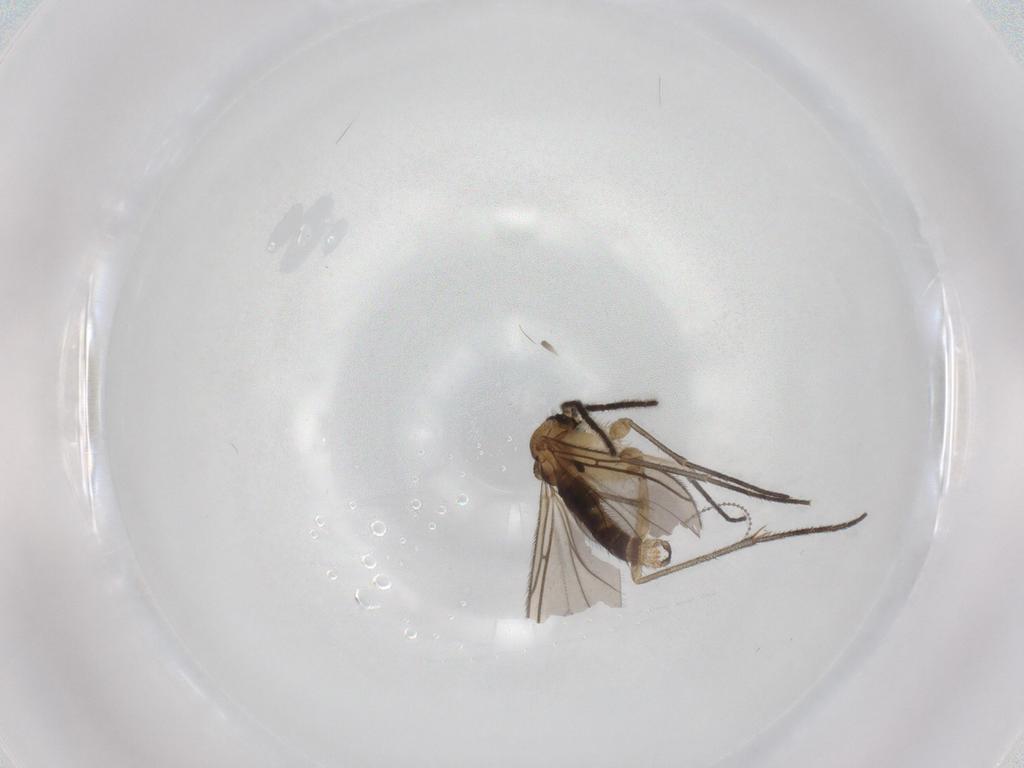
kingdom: Animalia
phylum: Arthropoda
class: Insecta
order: Diptera
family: Sciaridae
